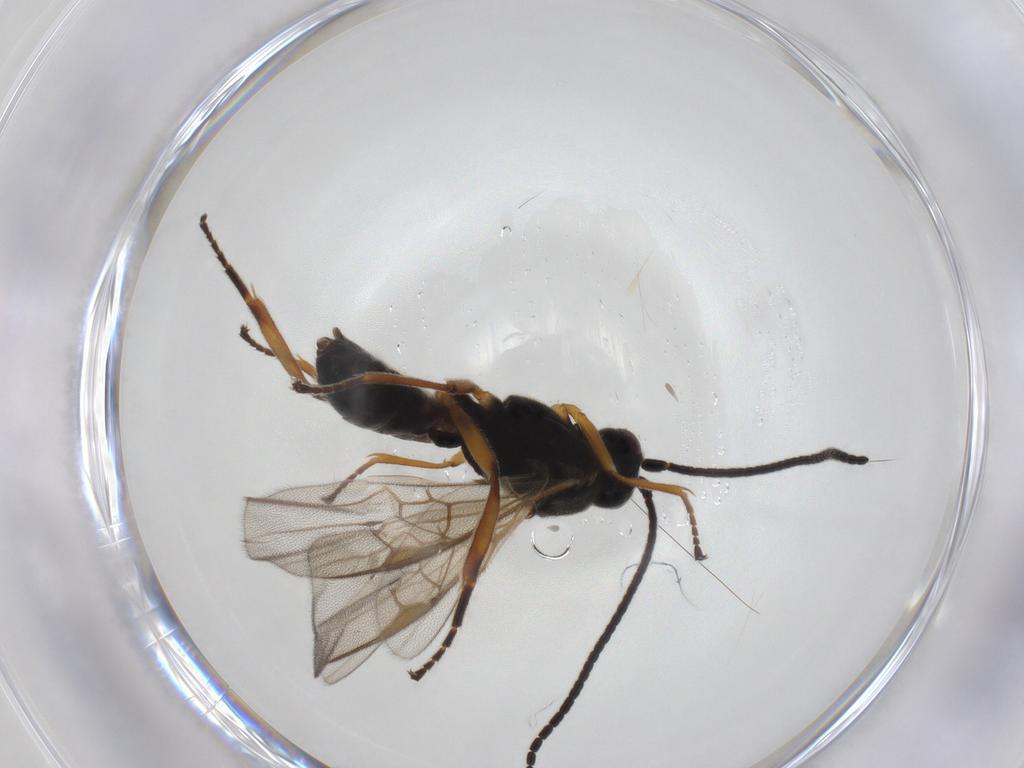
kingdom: Animalia
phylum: Arthropoda
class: Insecta
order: Hymenoptera
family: Braconidae
